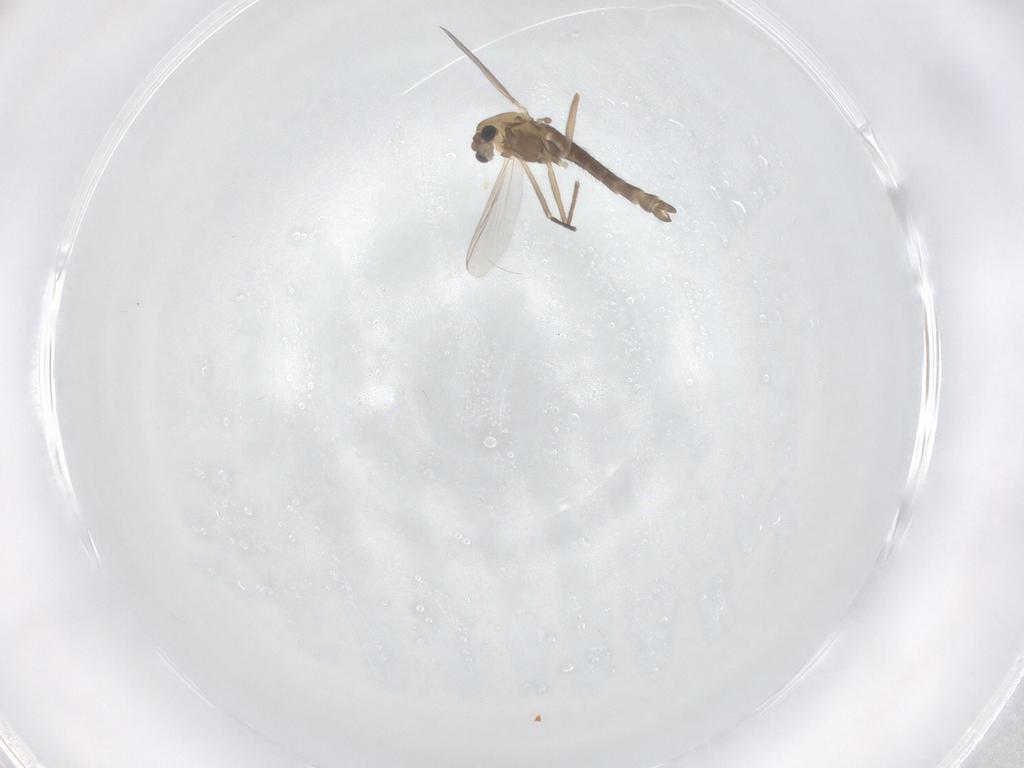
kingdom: Animalia
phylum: Arthropoda
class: Insecta
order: Diptera
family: Chironomidae
